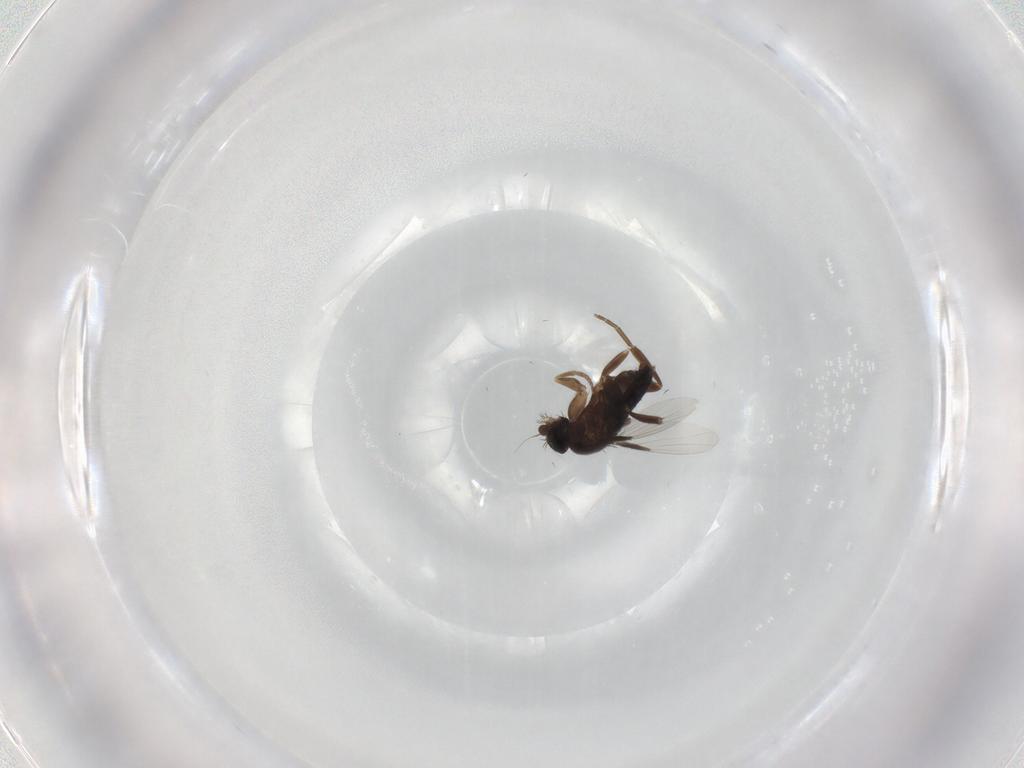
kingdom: Animalia
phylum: Arthropoda
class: Insecta
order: Diptera
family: Phoridae
